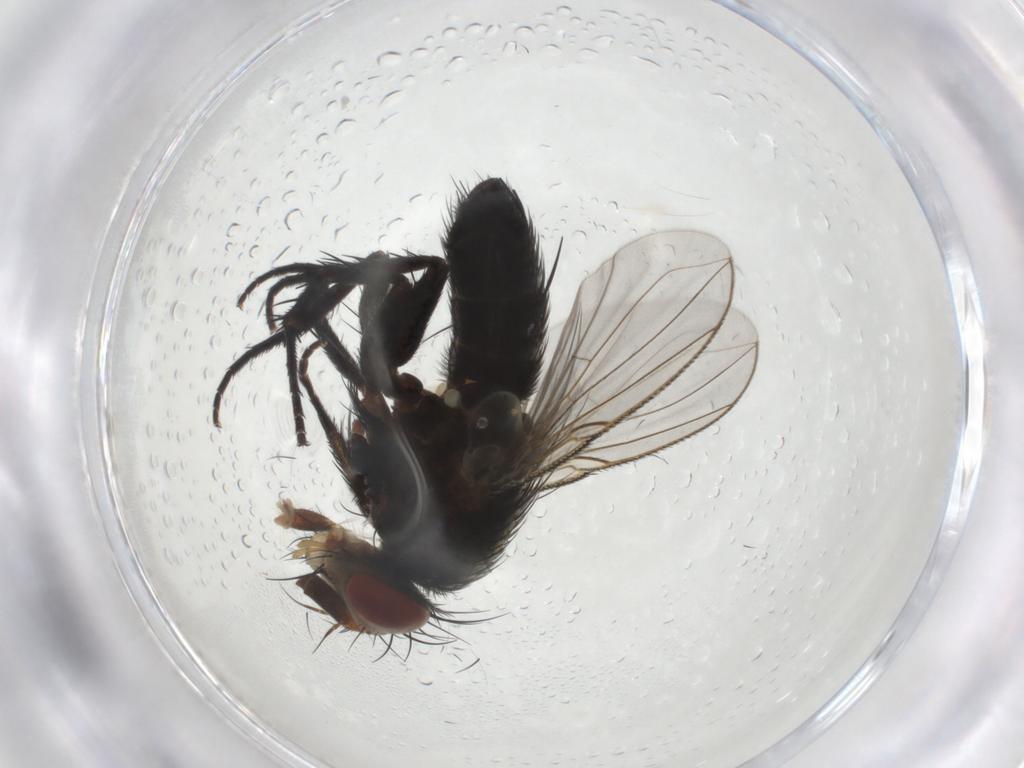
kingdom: Animalia
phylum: Arthropoda
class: Insecta
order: Diptera
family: Tachinidae
